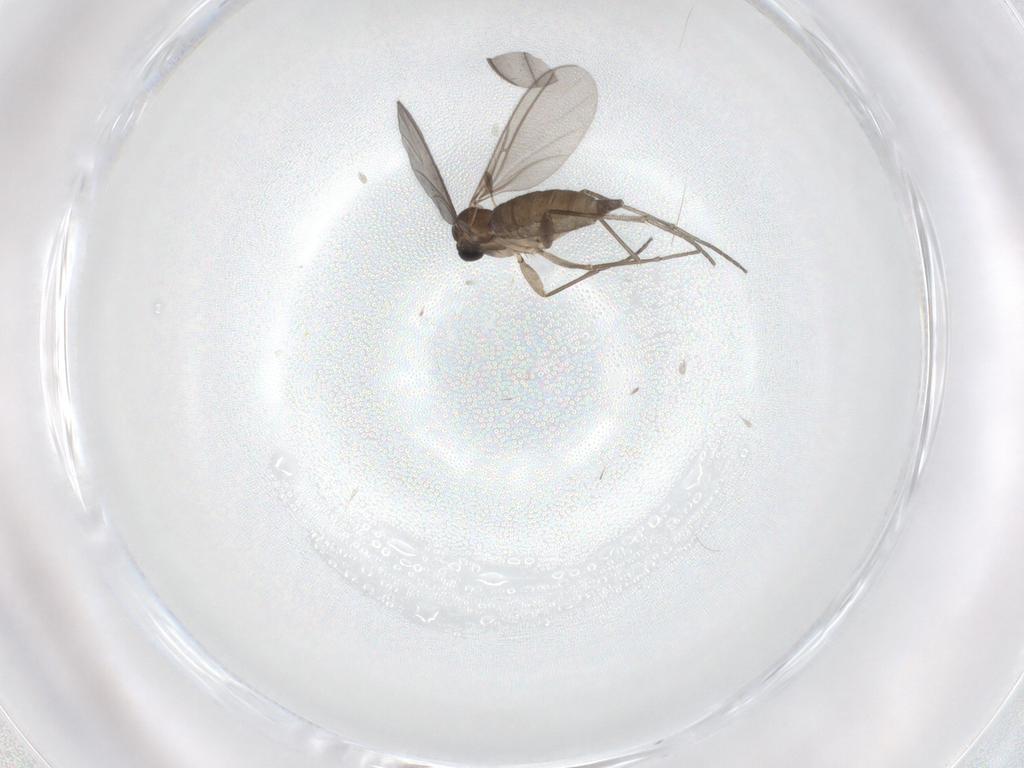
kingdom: Animalia
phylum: Arthropoda
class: Insecta
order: Diptera
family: Sciaridae
